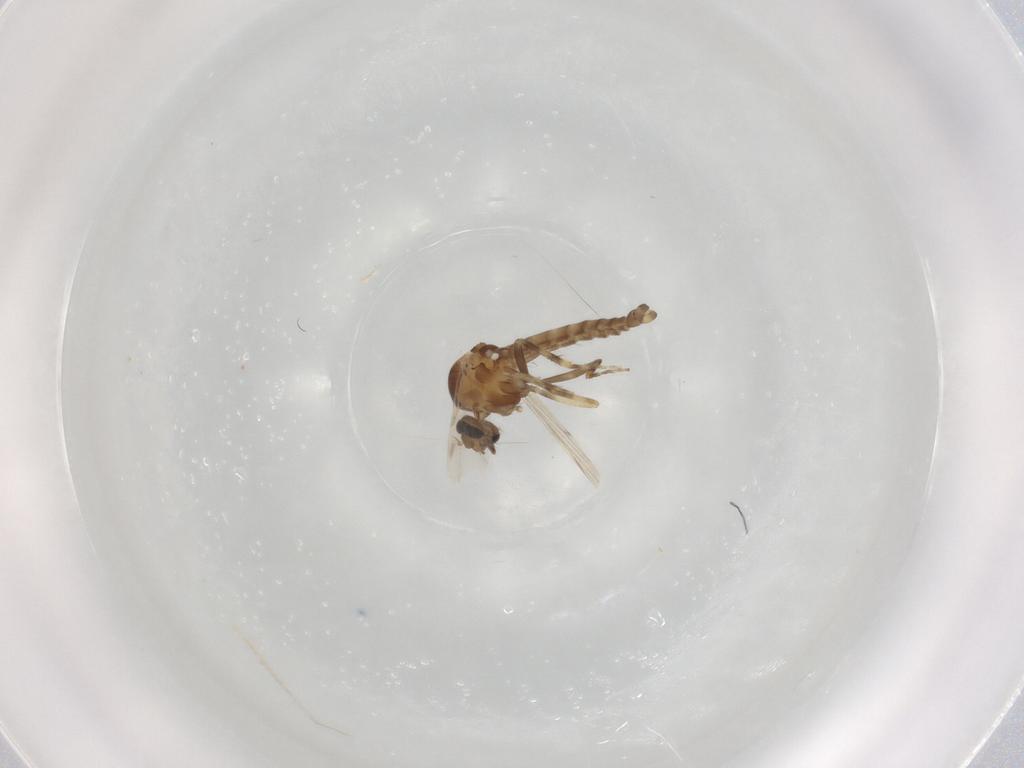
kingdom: Animalia
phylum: Arthropoda
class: Insecta
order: Diptera
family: Ceratopogonidae
